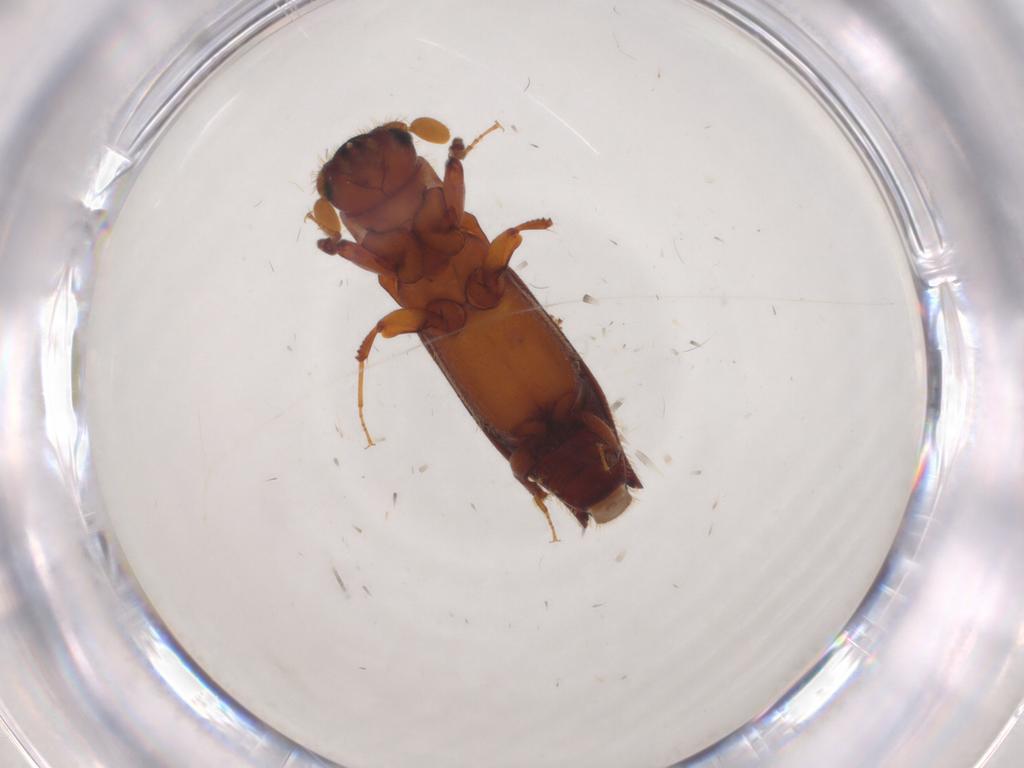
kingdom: Animalia
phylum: Arthropoda
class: Insecta
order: Coleoptera
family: Curculionidae
